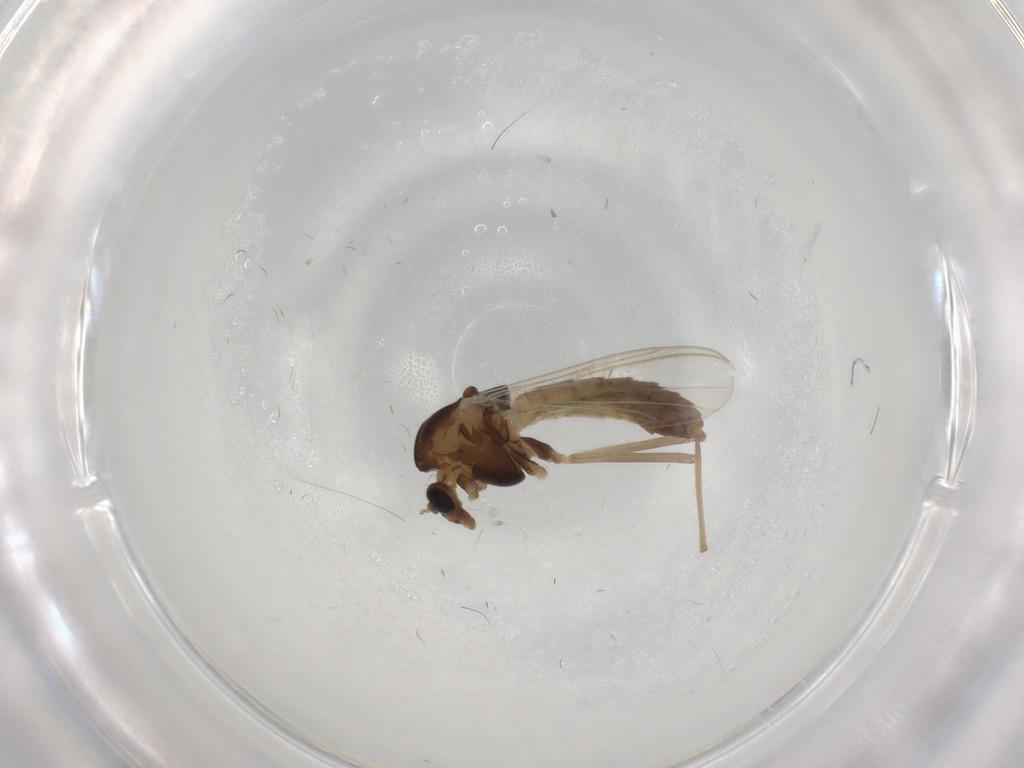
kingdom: Animalia
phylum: Arthropoda
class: Insecta
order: Diptera
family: Chironomidae
